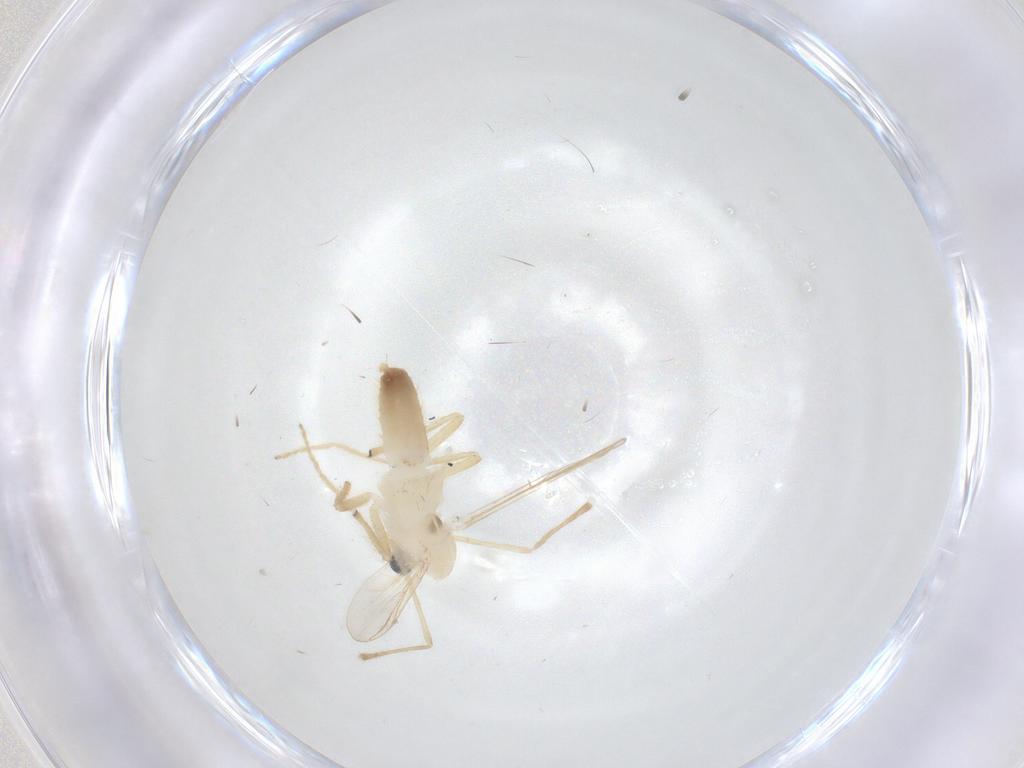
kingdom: Animalia
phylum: Arthropoda
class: Insecta
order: Diptera
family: Chironomidae
